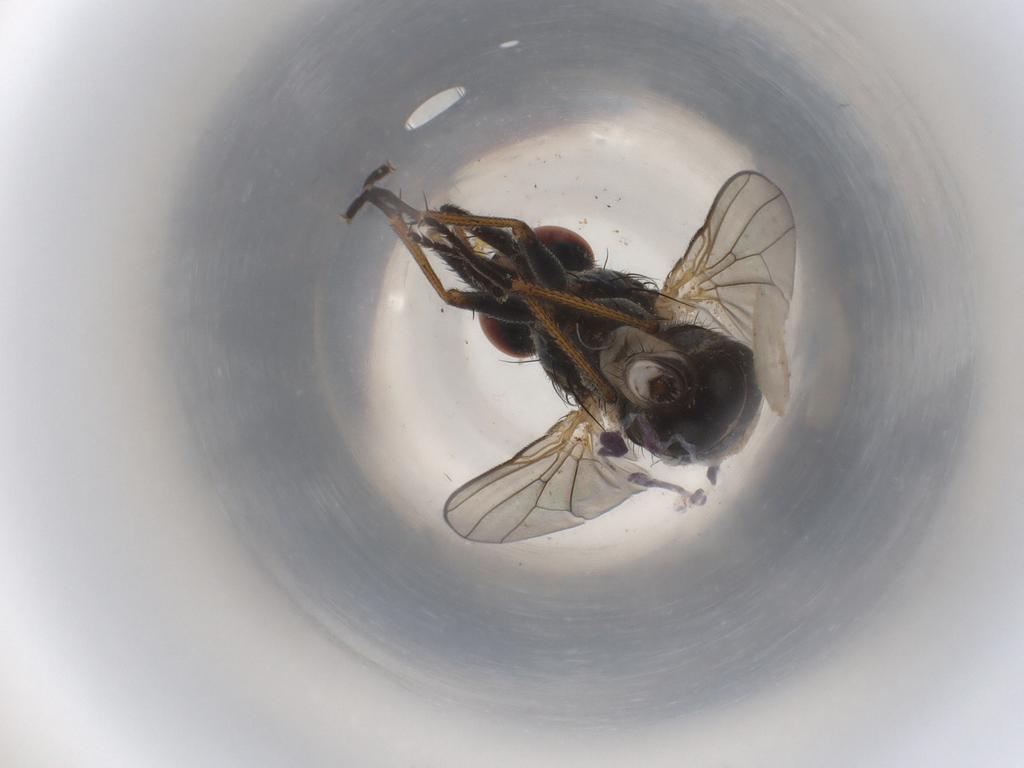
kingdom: Animalia
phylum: Arthropoda
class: Insecta
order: Diptera
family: Muscidae
